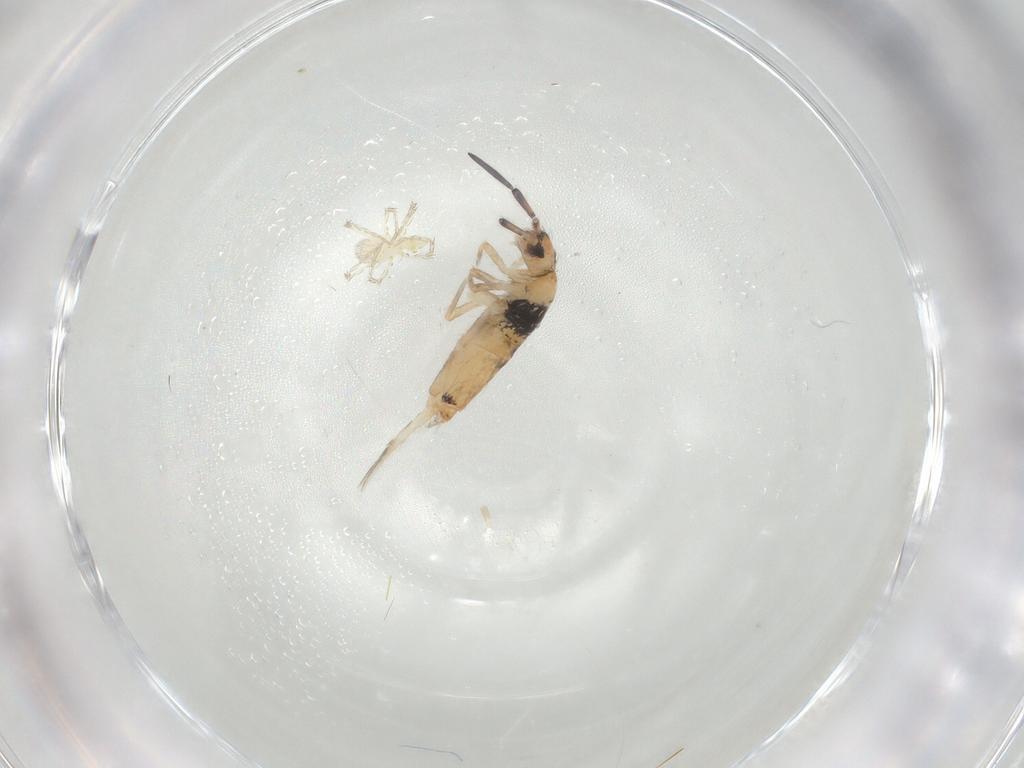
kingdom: Animalia
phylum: Arthropoda
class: Collembola
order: Entomobryomorpha
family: Entomobryidae
